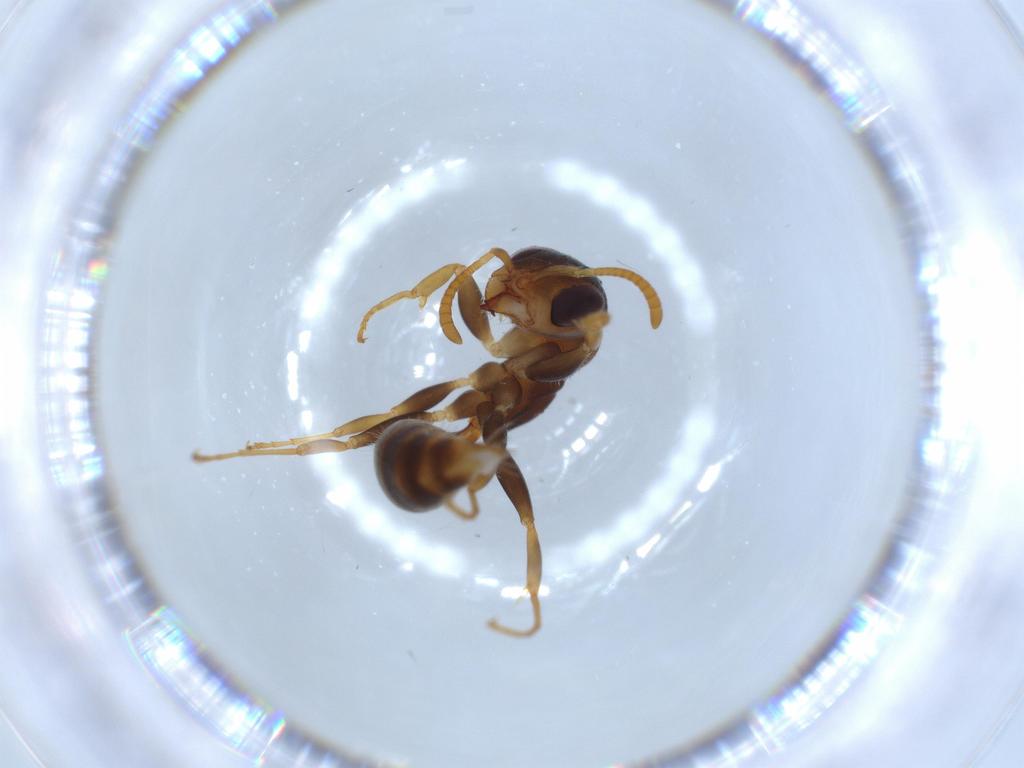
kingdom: Animalia
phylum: Arthropoda
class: Insecta
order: Hymenoptera
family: Formicidae
